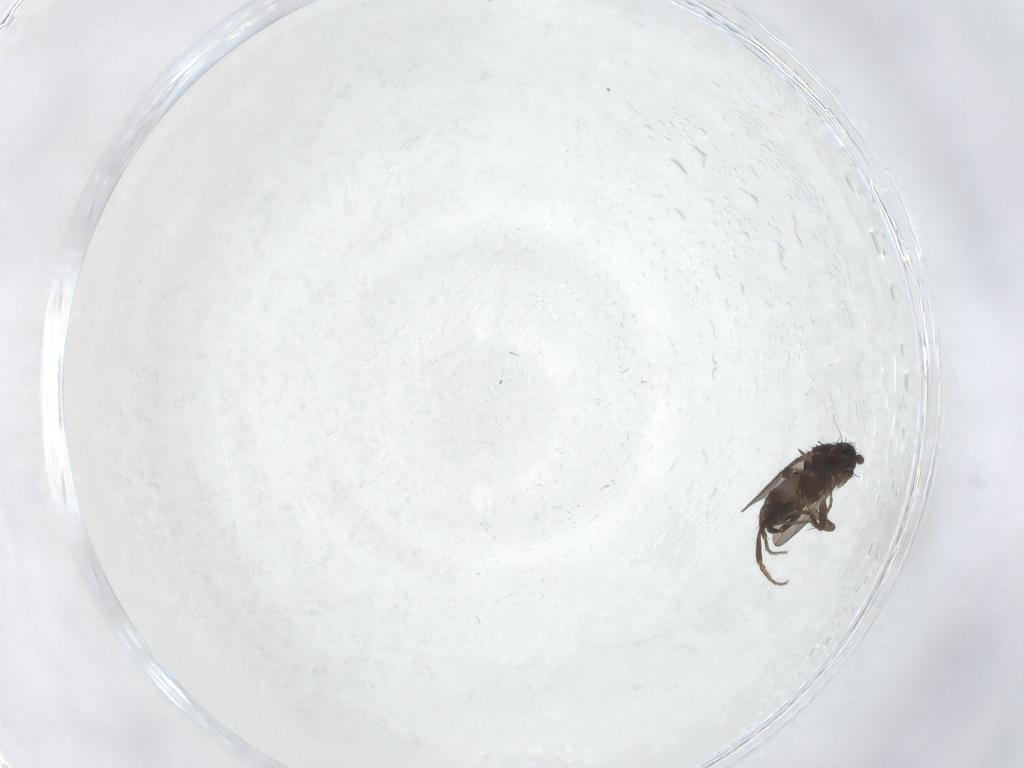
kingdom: Animalia
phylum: Arthropoda
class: Insecta
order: Diptera
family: Sphaeroceridae
